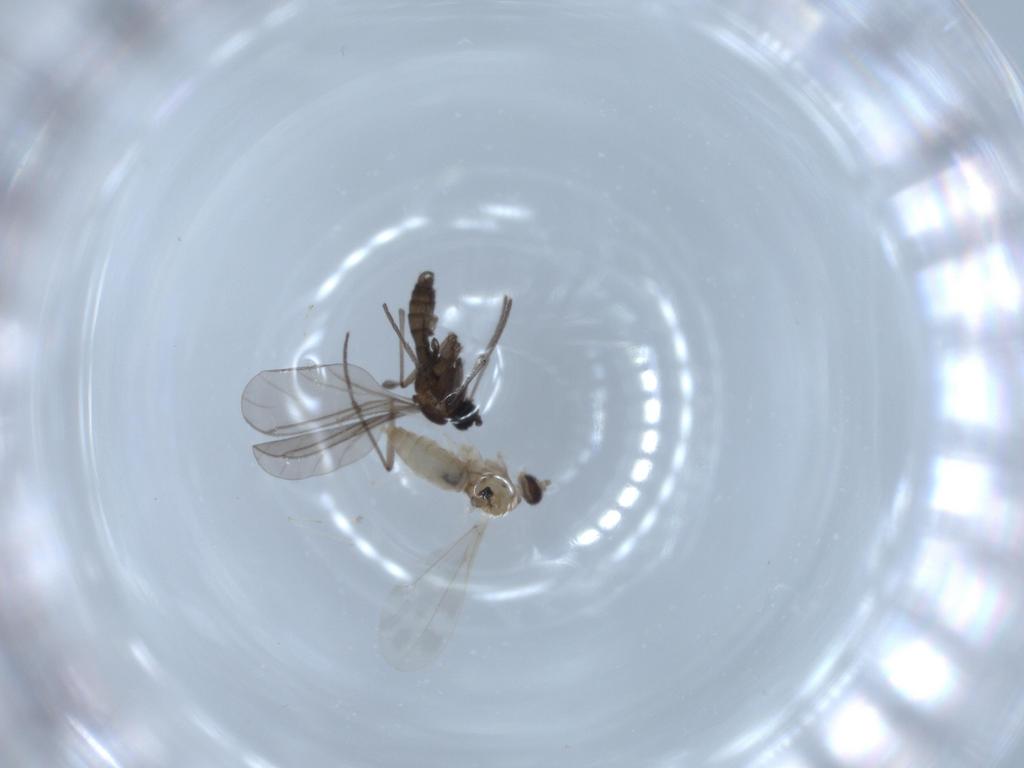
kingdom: Animalia
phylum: Arthropoda
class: Insecta
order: Diptera
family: Cecidomyiidae
